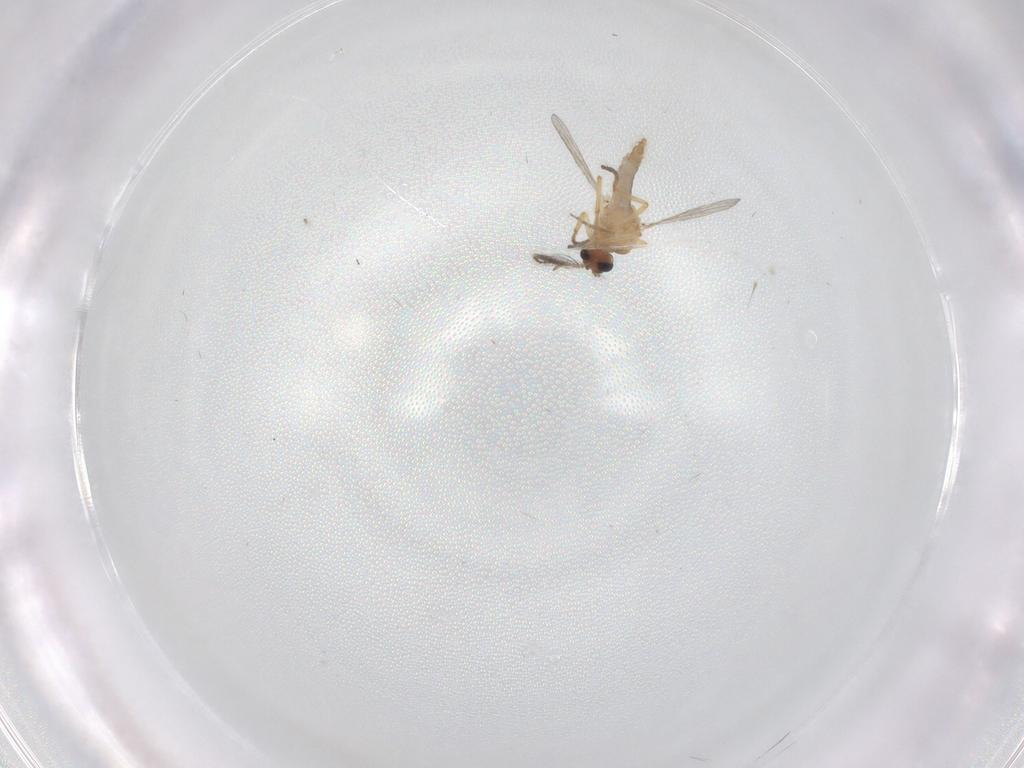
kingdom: Animalia
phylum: Arthropoda
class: Insecta
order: Diptera
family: Ceratopogonidae
